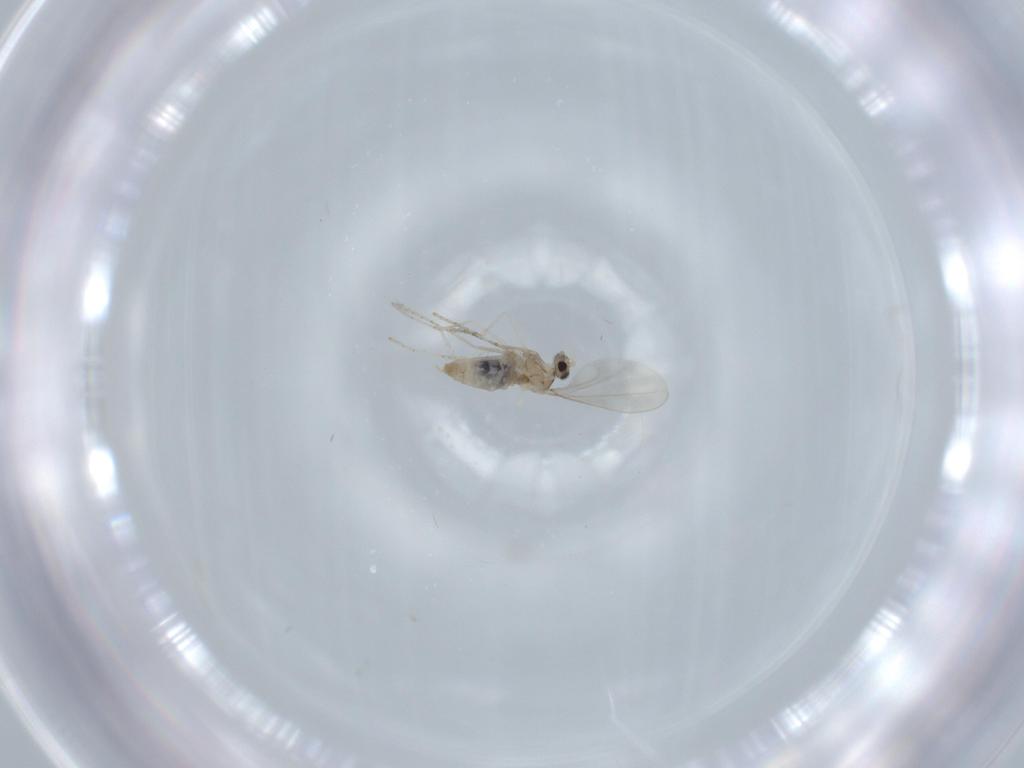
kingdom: Animalia
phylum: Arthropoda
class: Insecta
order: Diptera
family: Cecidomyiidae
